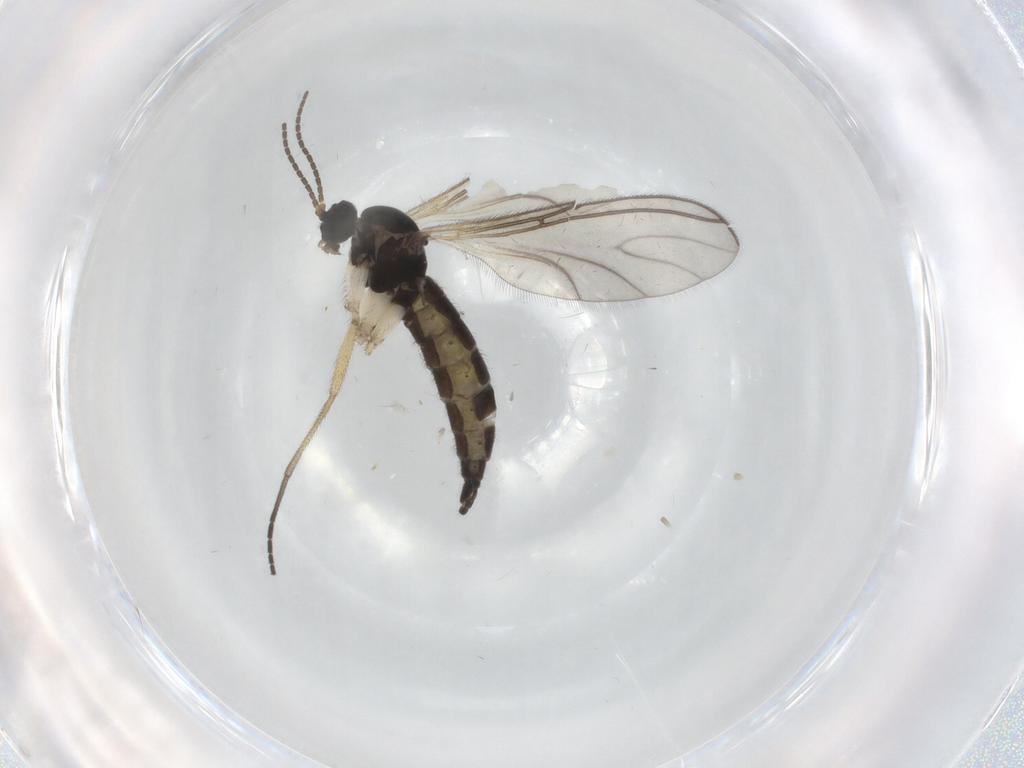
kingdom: Animalia
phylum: Arthropoda
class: Insecta
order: Diptera
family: Sciaridae
